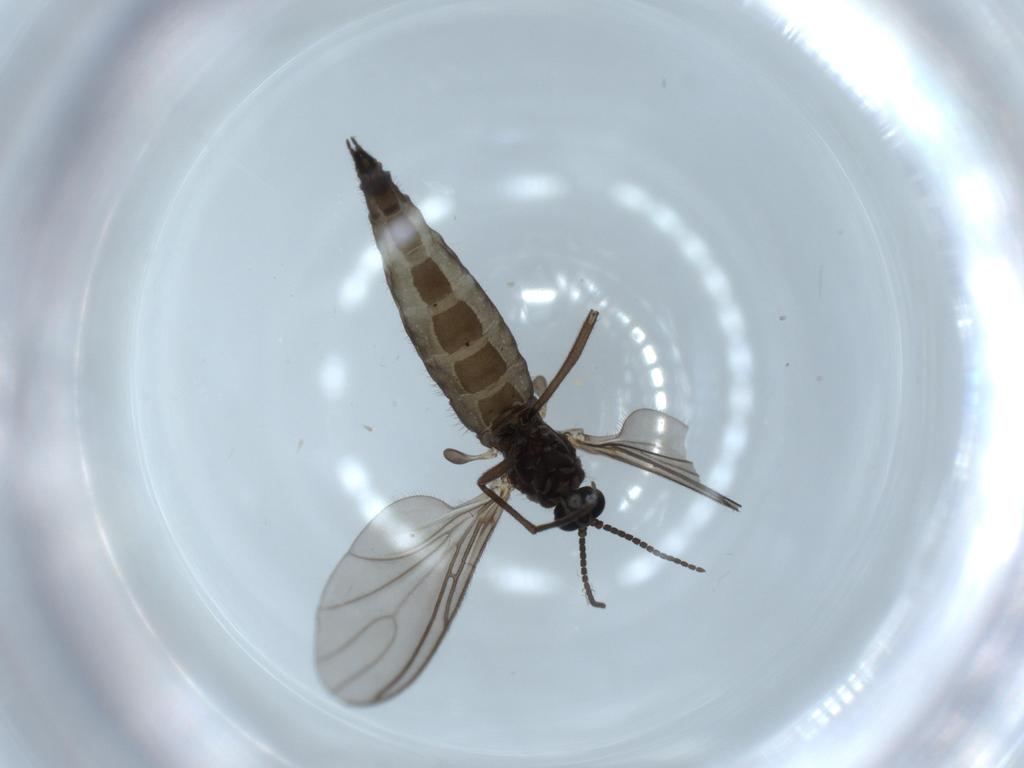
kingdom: Animalia
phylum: Arthropoda
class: Insecta
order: Diptera
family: Sciaridae
